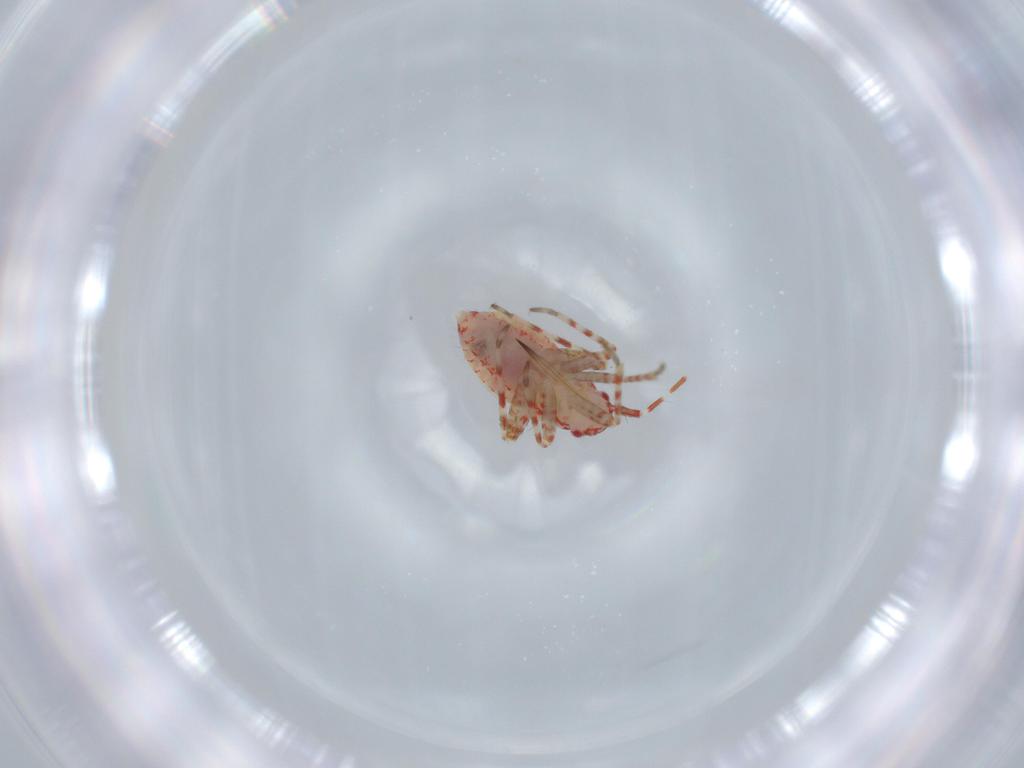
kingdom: Animalia
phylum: Arthropoda
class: Insecta
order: Hemiptera
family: Miridae
